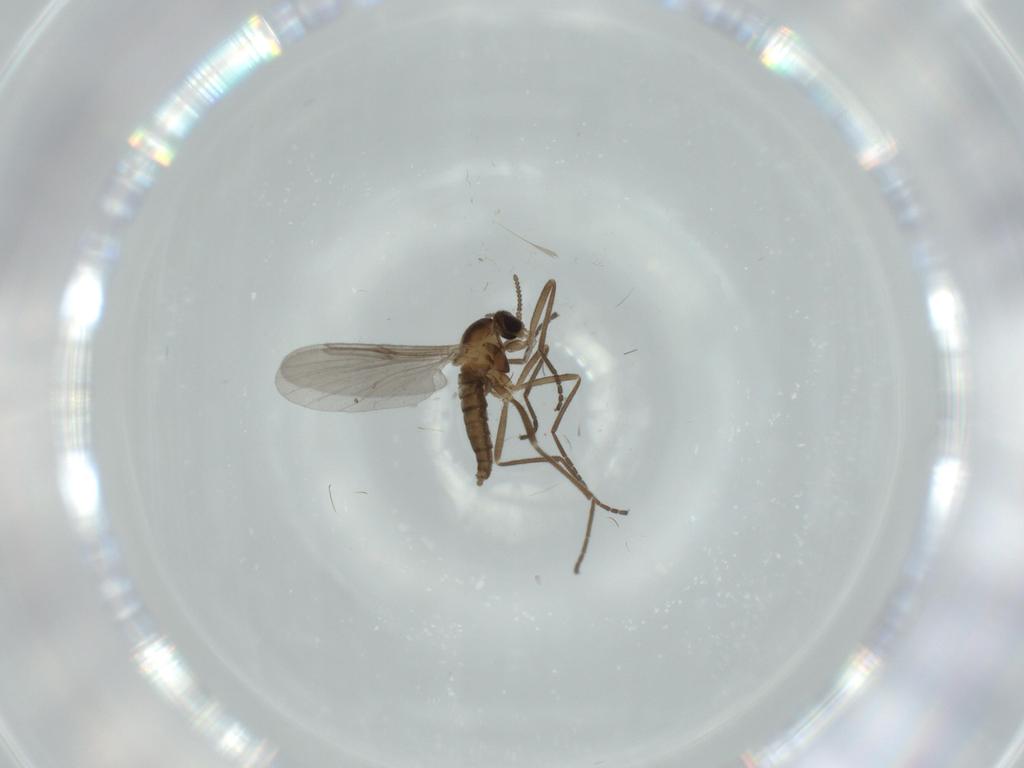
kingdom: Animalia
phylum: Arthropoda
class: Insecta
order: Diptera
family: Cecidomyiidae
